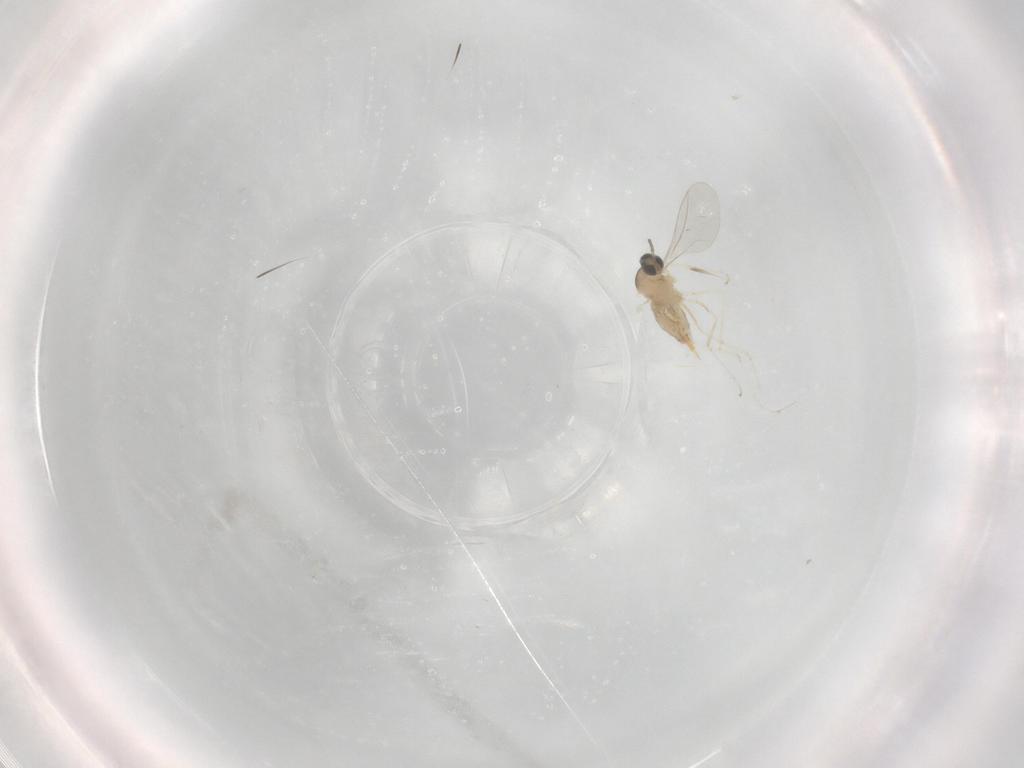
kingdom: Animalia
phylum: Arthropoda
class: Insecta
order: Diptera
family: Cecidomyiidae
